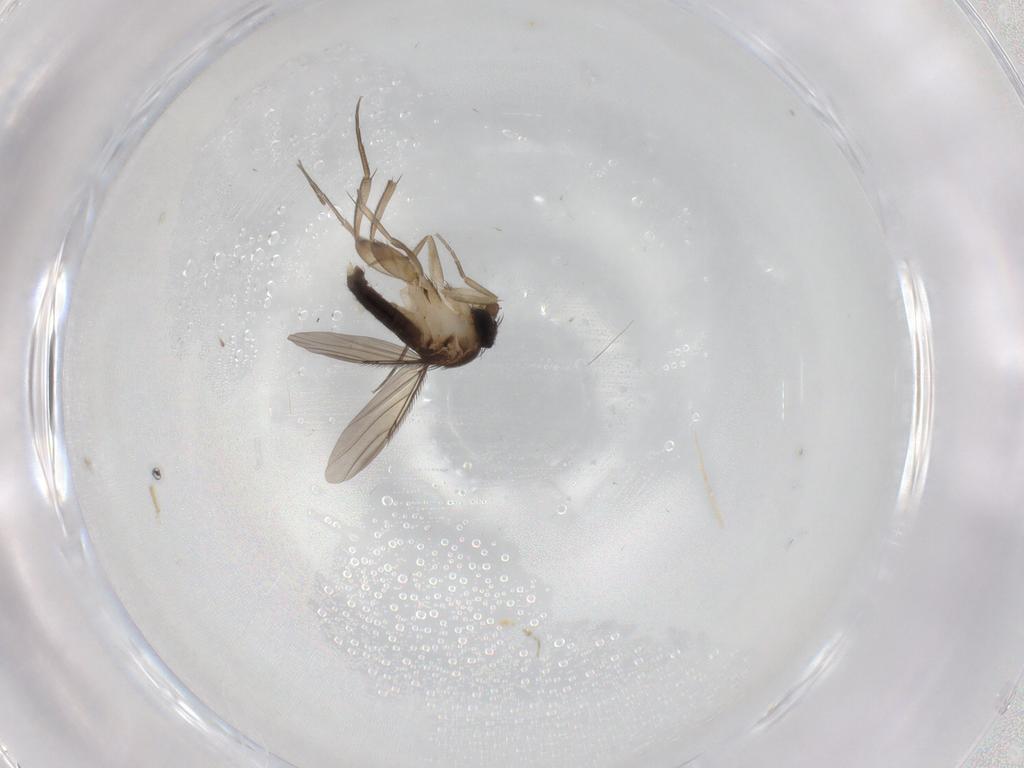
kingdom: Animalia
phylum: Arthropoda
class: Insecta
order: Diptera
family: Phoridae
